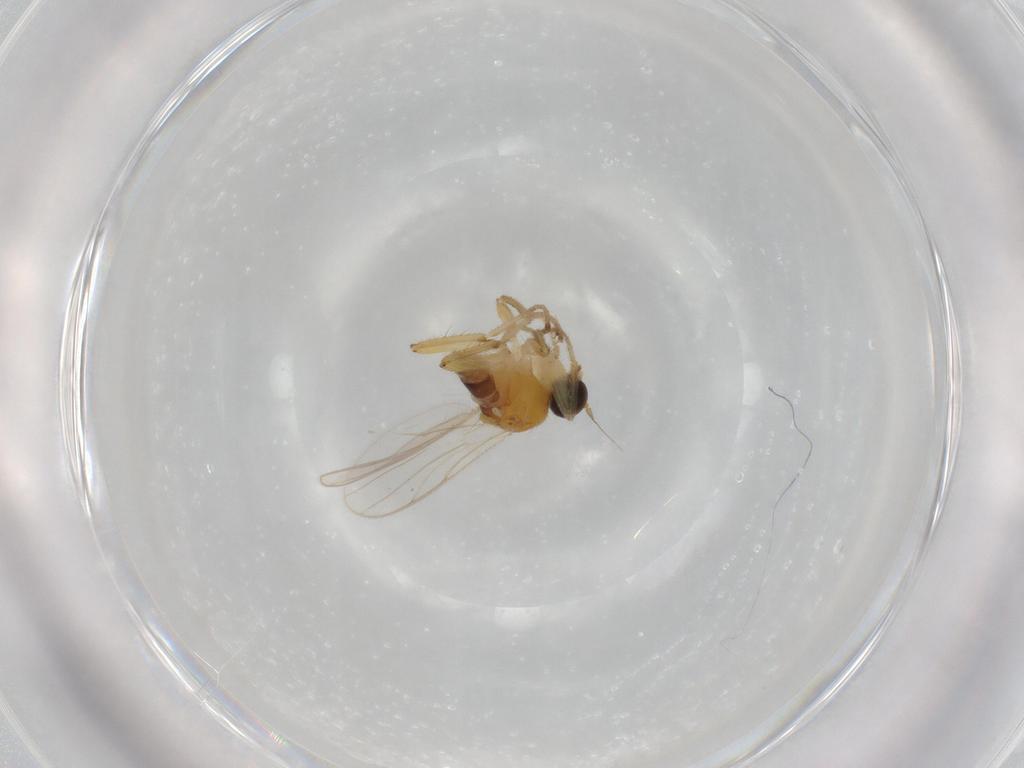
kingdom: Animalia
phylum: Arthropoda
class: Insecta
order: Diptera
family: Hybotidae
